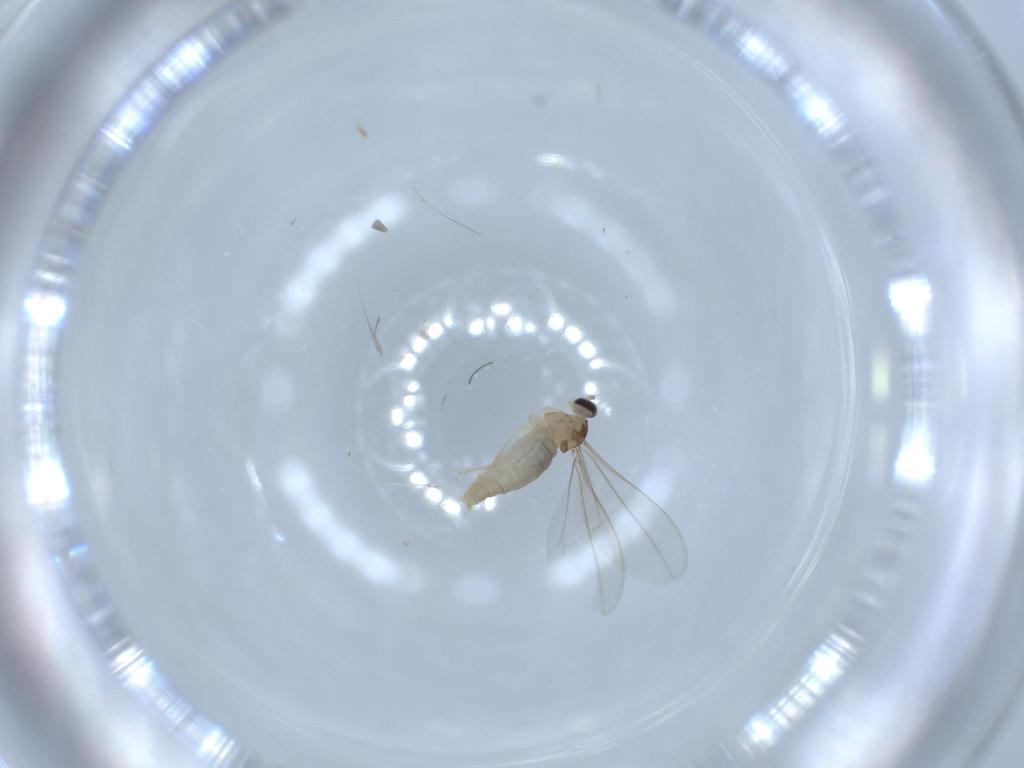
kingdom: Animalia
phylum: Arthropoda
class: Insecta
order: Diptera
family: Cecidomyiidae
